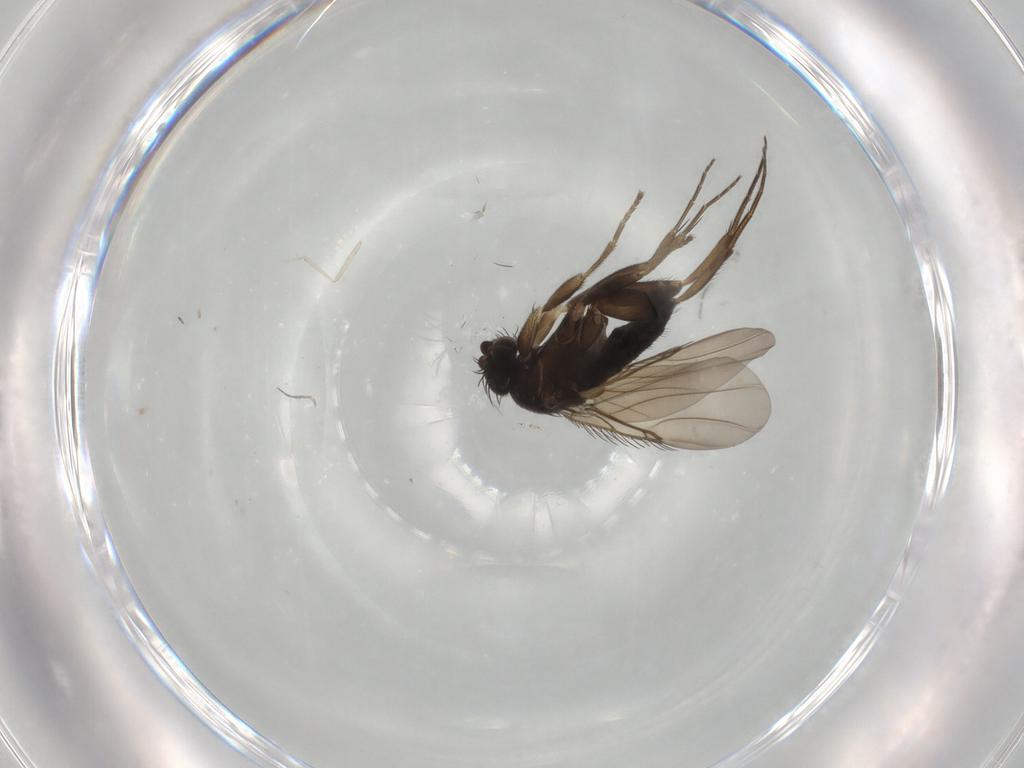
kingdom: Animalia
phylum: Arthropoda
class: Insecta
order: Diptera
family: Phoridae
